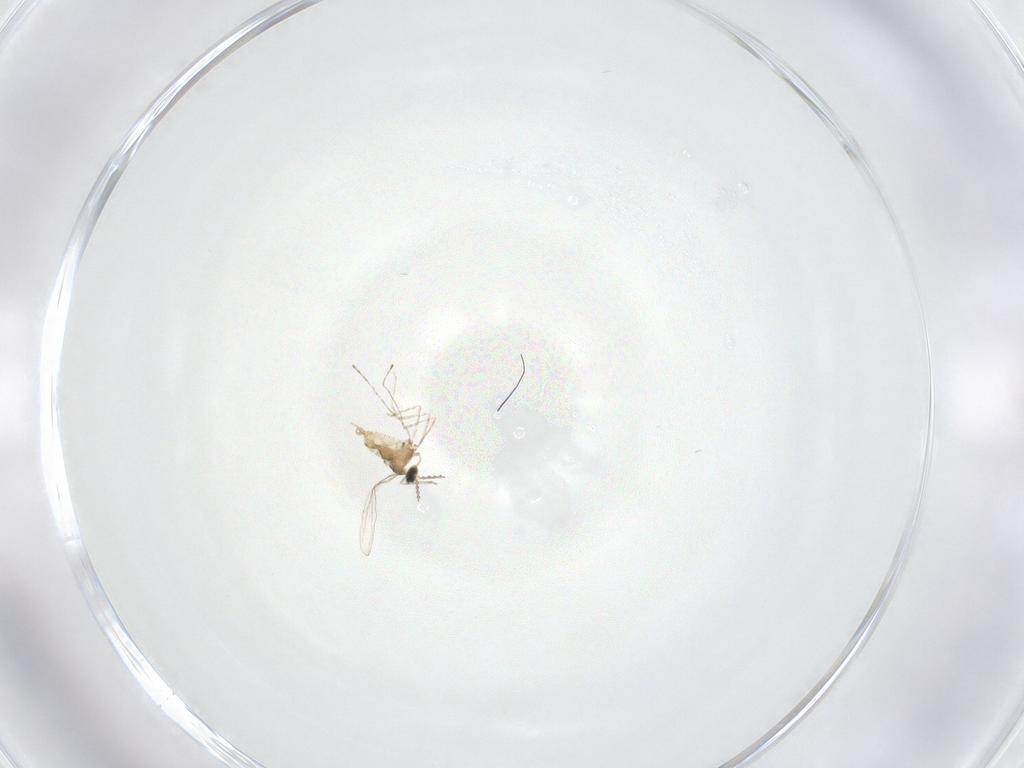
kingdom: Animalia
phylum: Arthropoda
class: Insecta
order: Diptera
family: Cecidomyiidae
